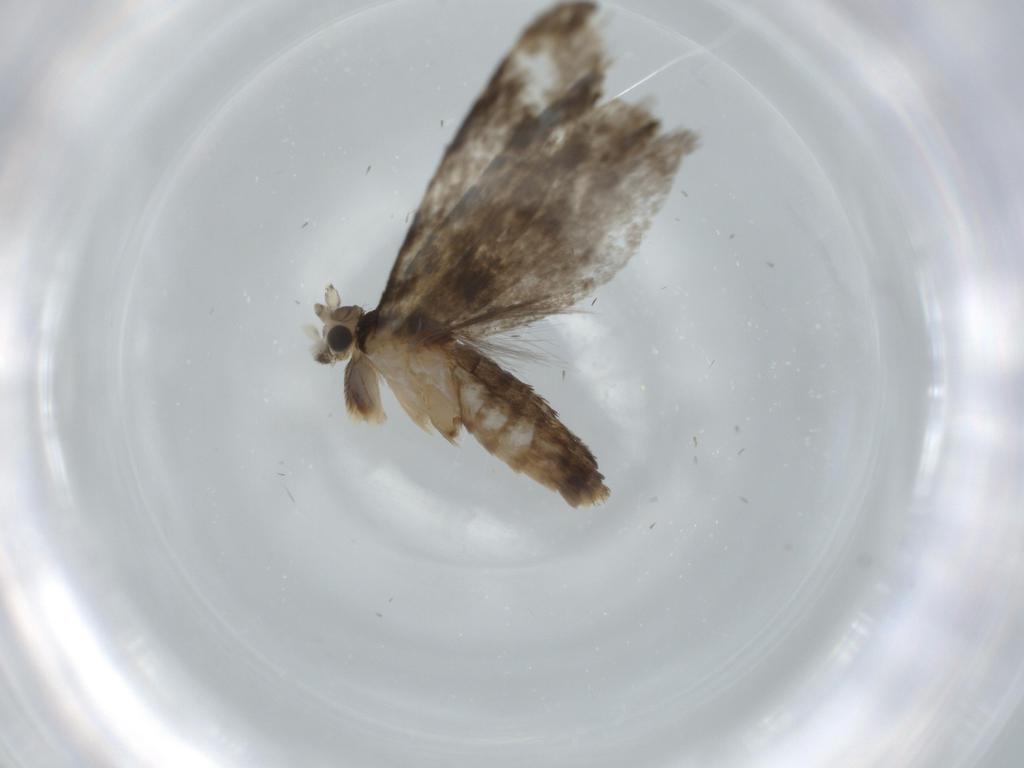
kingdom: Animalia
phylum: Arthropoda
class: Insecta
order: Lepidoptera
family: Tineidae
